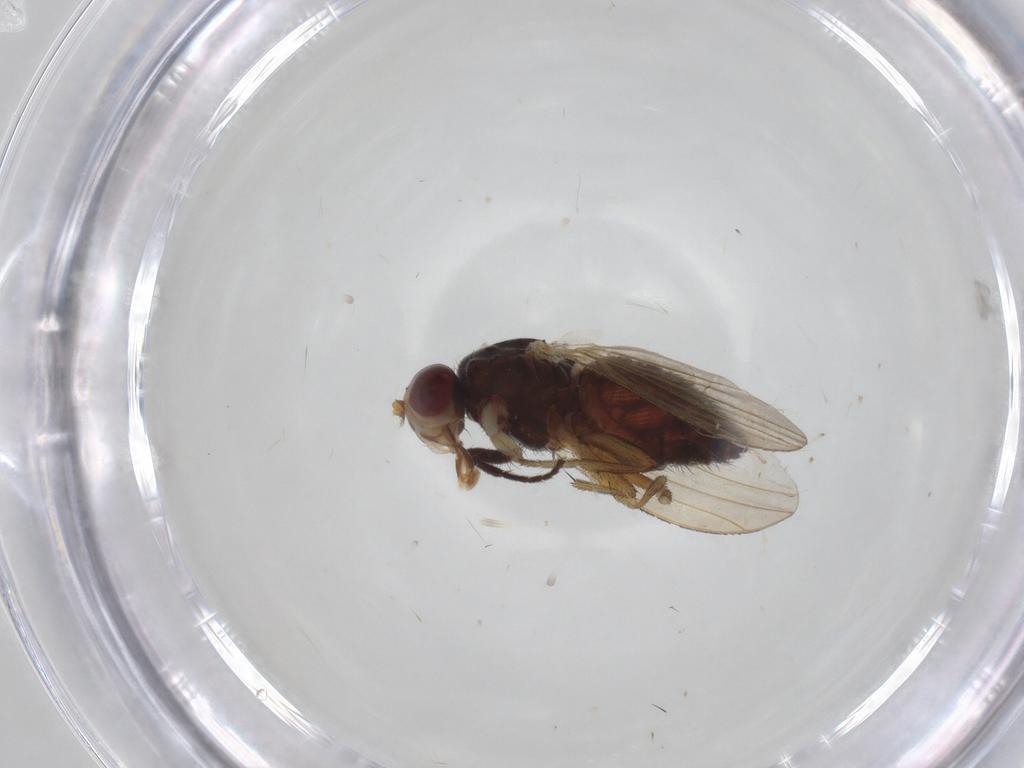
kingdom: Animalia
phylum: Arthropoda
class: Insecta
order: Diptera
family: Heleomyzidae
